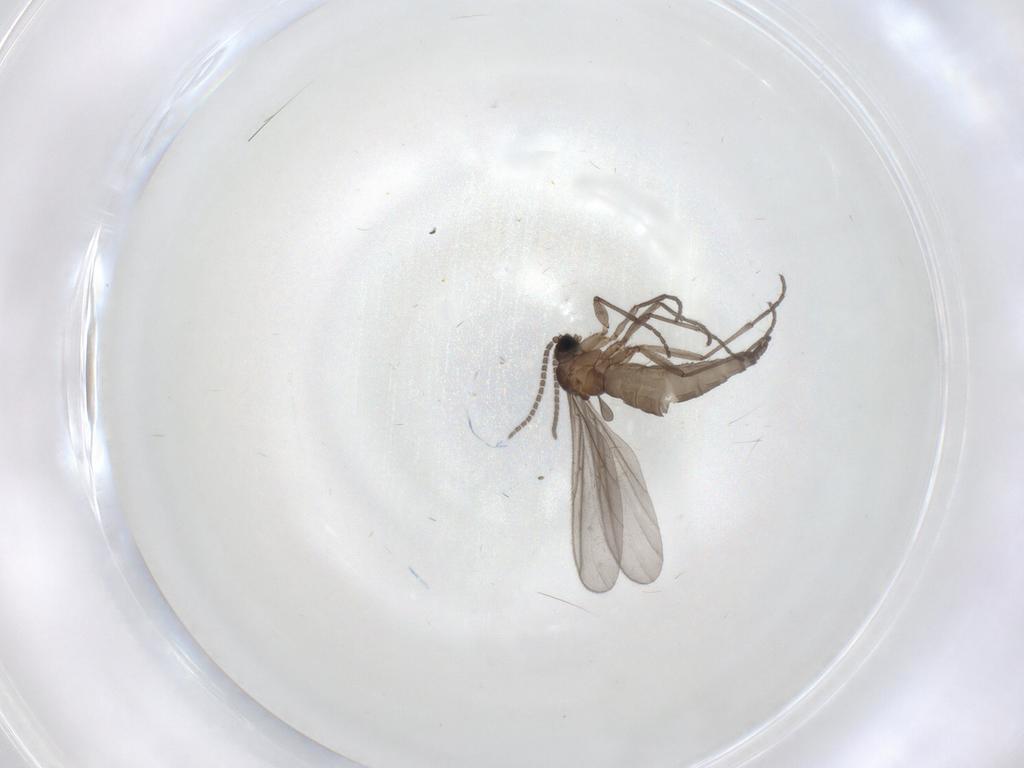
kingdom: Animalia
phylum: Arthropoda
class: Insecta
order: Diptera
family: Sciaridae
